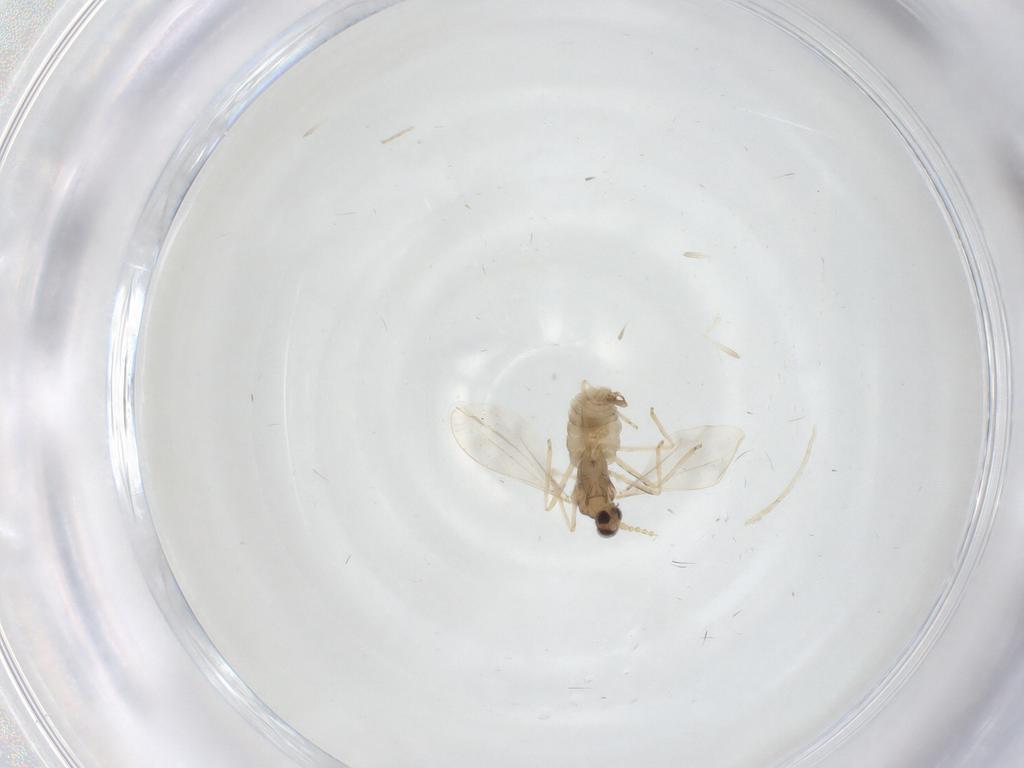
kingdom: Animalia
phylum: Arthropoda
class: Insecta
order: Diptera
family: Cecidomyiidae
